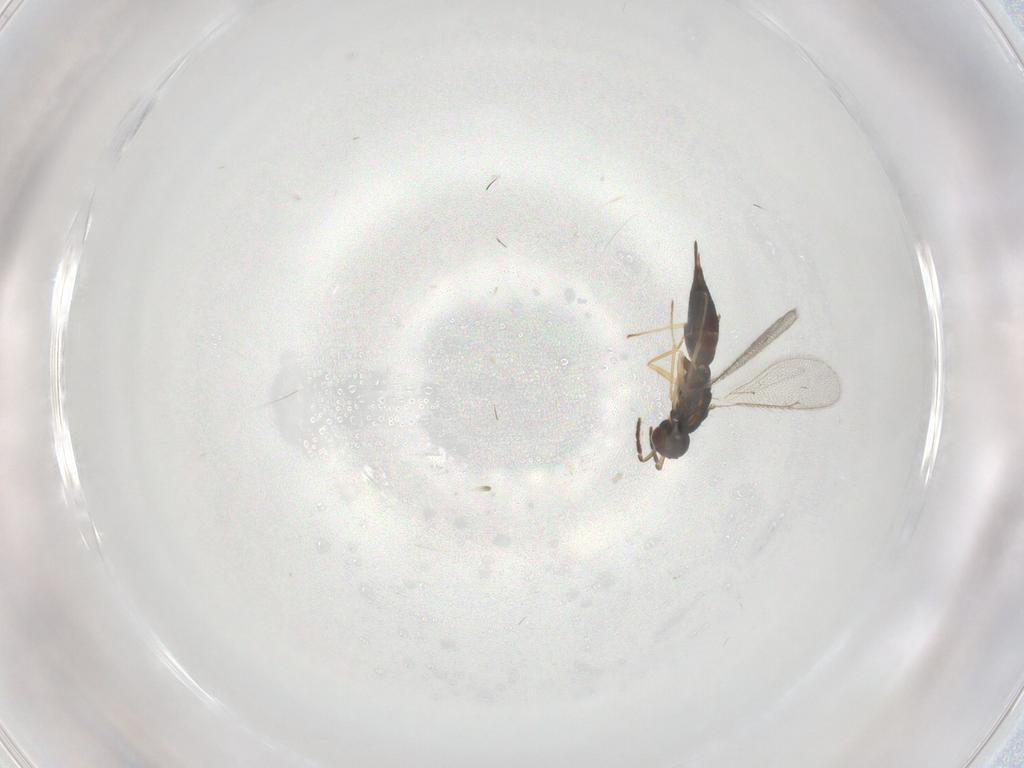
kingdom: Animalia
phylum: Arthropoda
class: Insecta
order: Hymenoptera
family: Eulophidae
